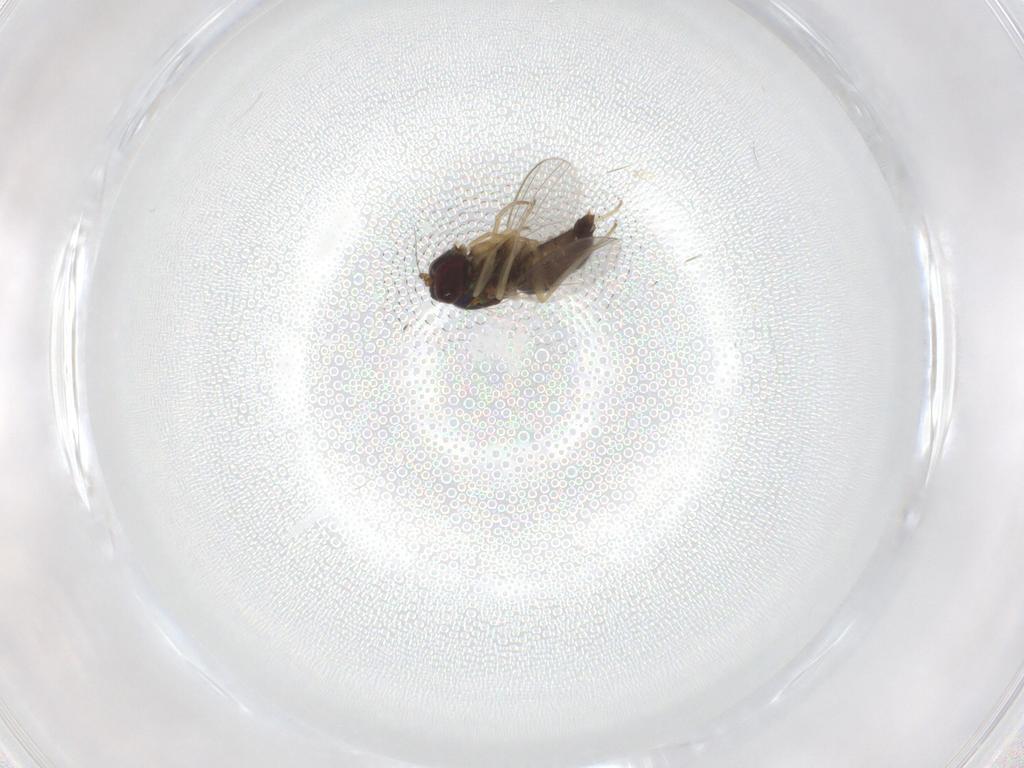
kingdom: Animalia
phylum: Arthropoda
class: Insecta
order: Diptera
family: Dolichopodidae
